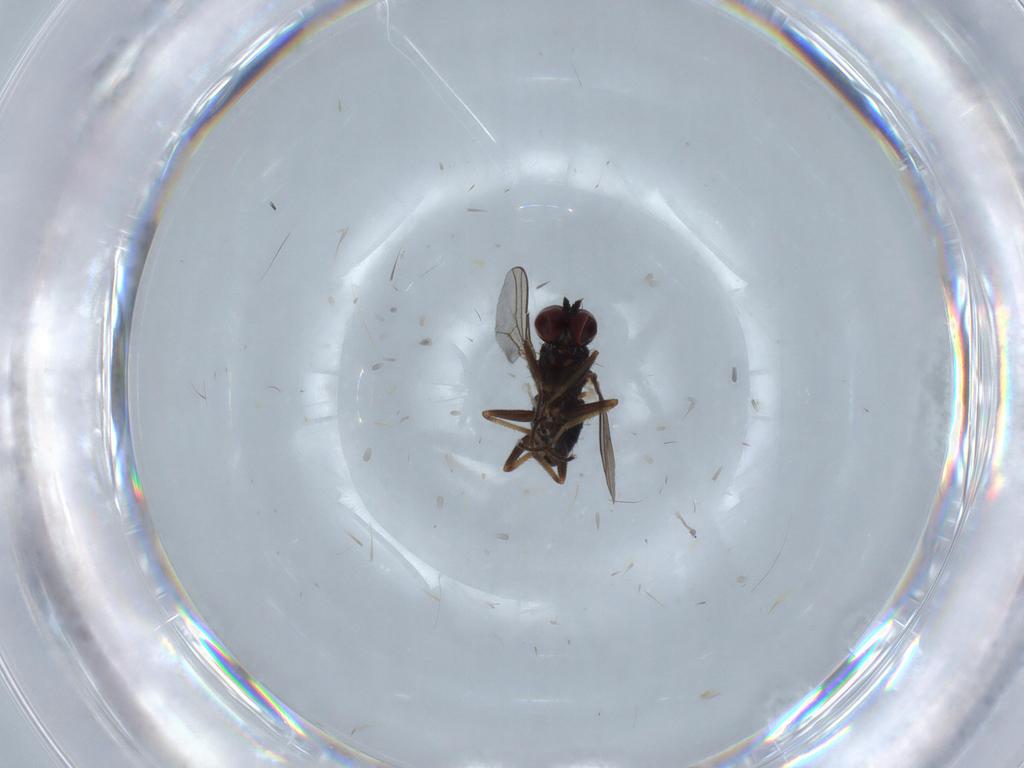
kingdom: Animalia
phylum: Arthropoda
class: Insecta
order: Diptera
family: Dolichopodidae
